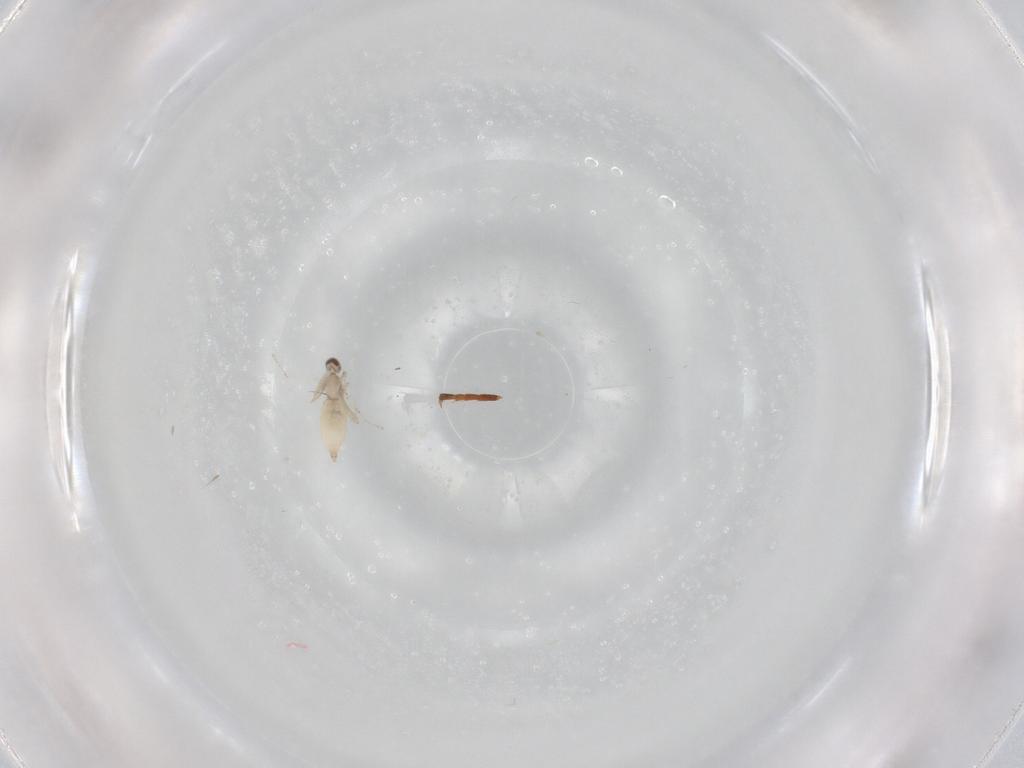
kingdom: Animalia
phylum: Arthropoda
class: Insecta
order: Diptera
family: Cecidomyiidae
